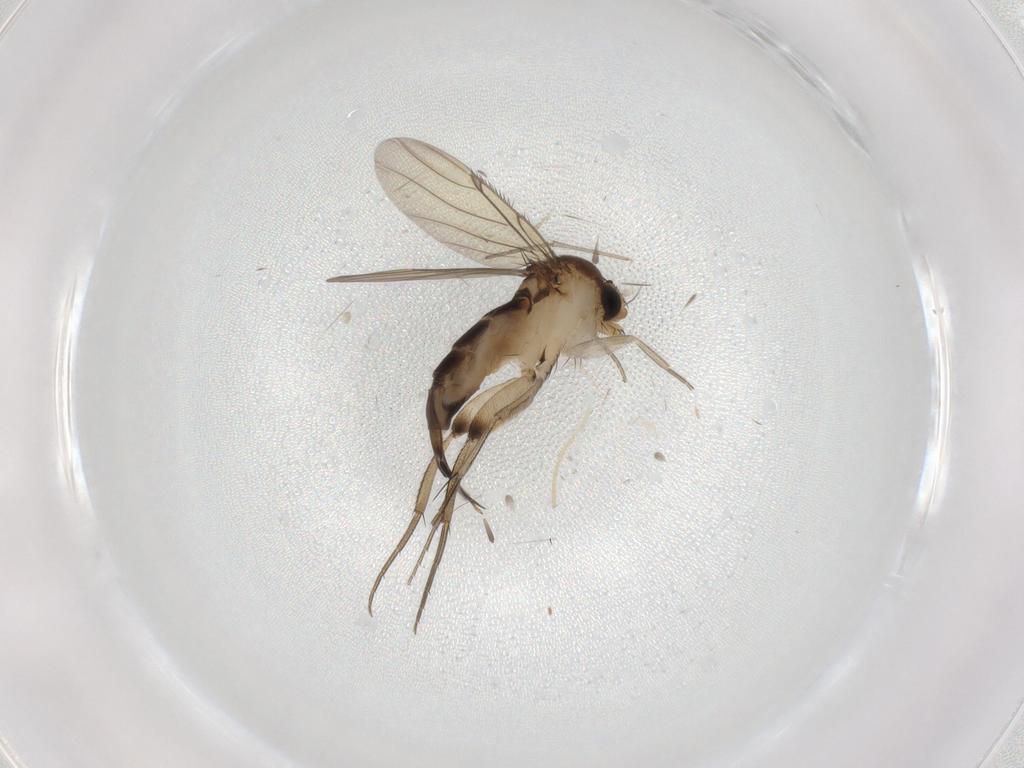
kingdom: Animalia
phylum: Arthropoda
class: Insecta
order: Diptera
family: Phoridae
